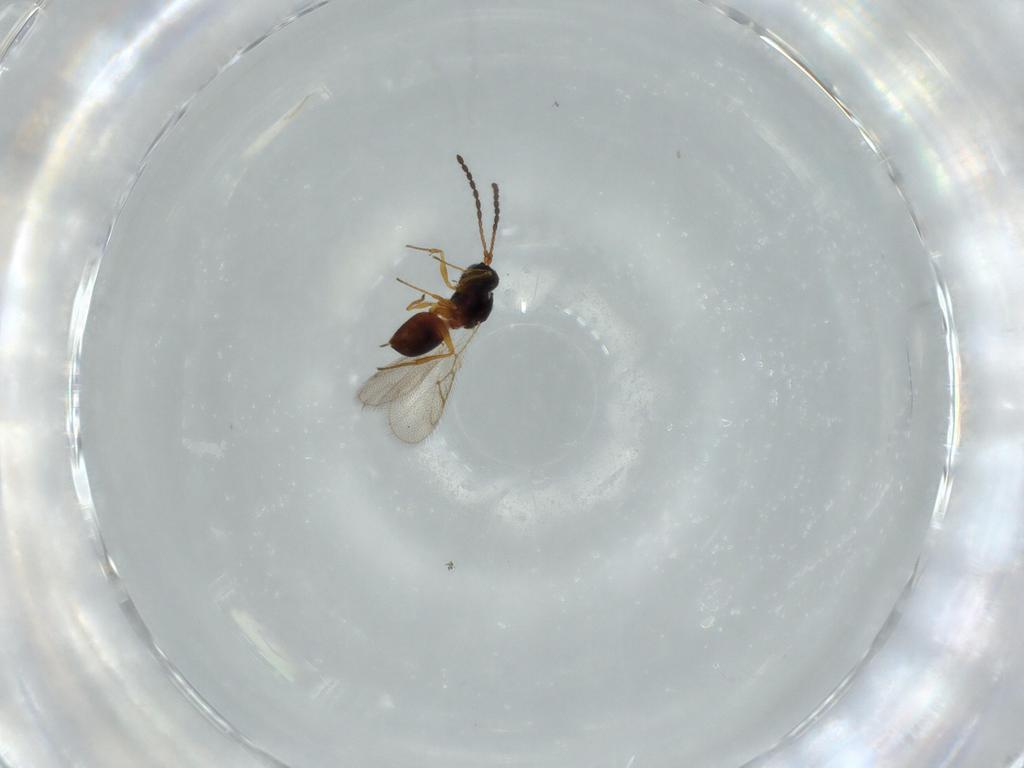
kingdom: Animalia
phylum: Arthropoda
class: Insecta
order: Hymenoptera
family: Figitidae
